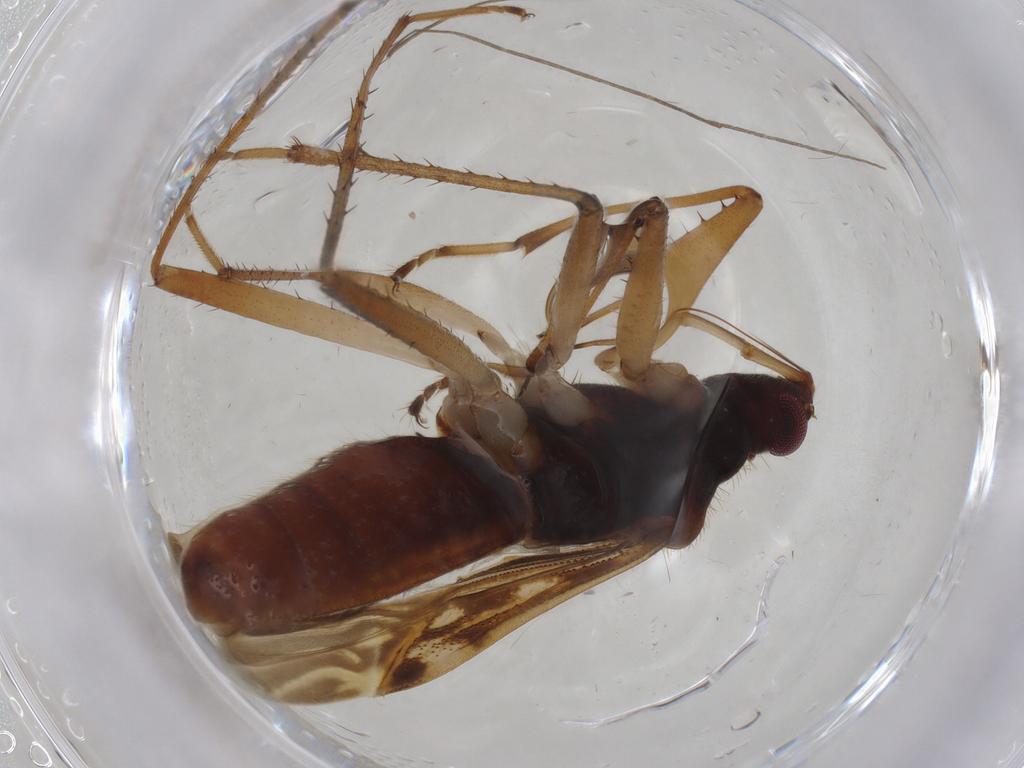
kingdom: Animalia
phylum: Arthropoda
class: Insecta
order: Hemiptera
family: Rhyparochromidae
